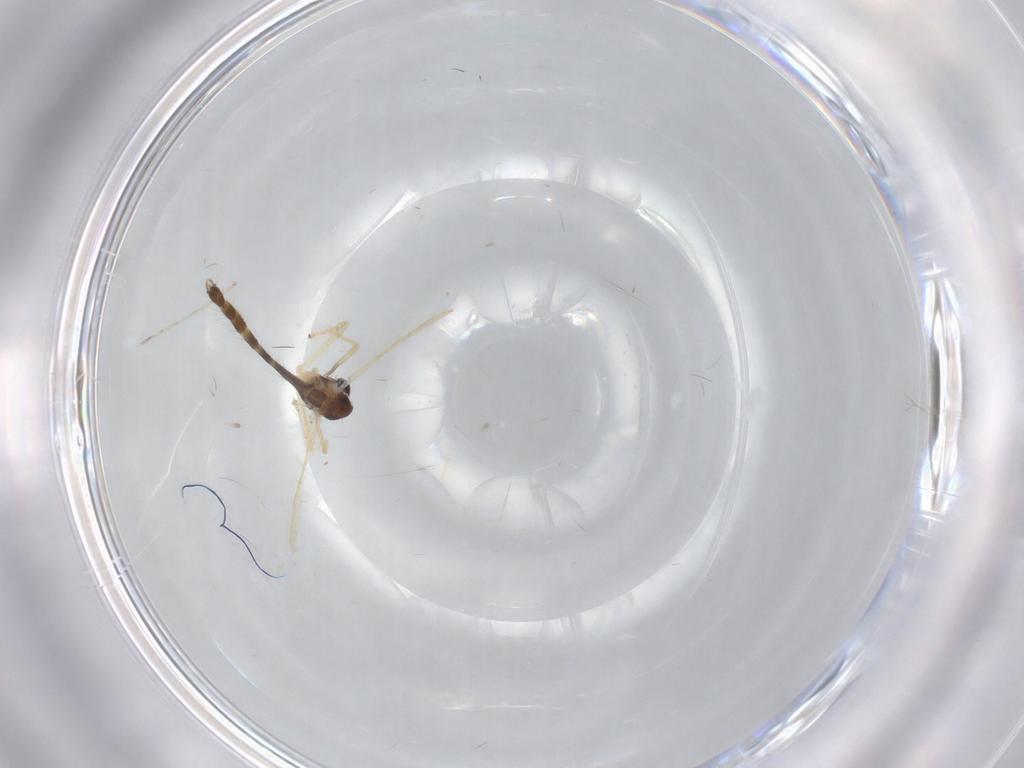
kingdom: Animalia
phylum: Arthropoda
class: Insecta
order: Diptera
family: Chironomidae
